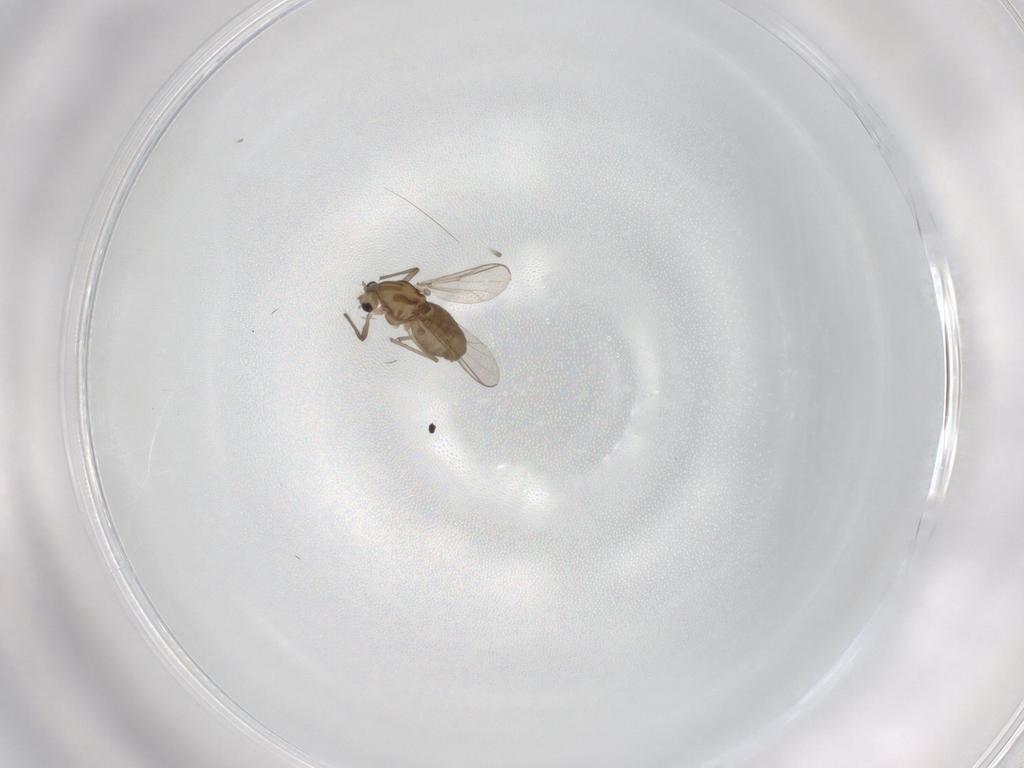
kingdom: Animalia
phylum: Arthropoda
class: Insecta
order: Diptera
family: Chironomidae
